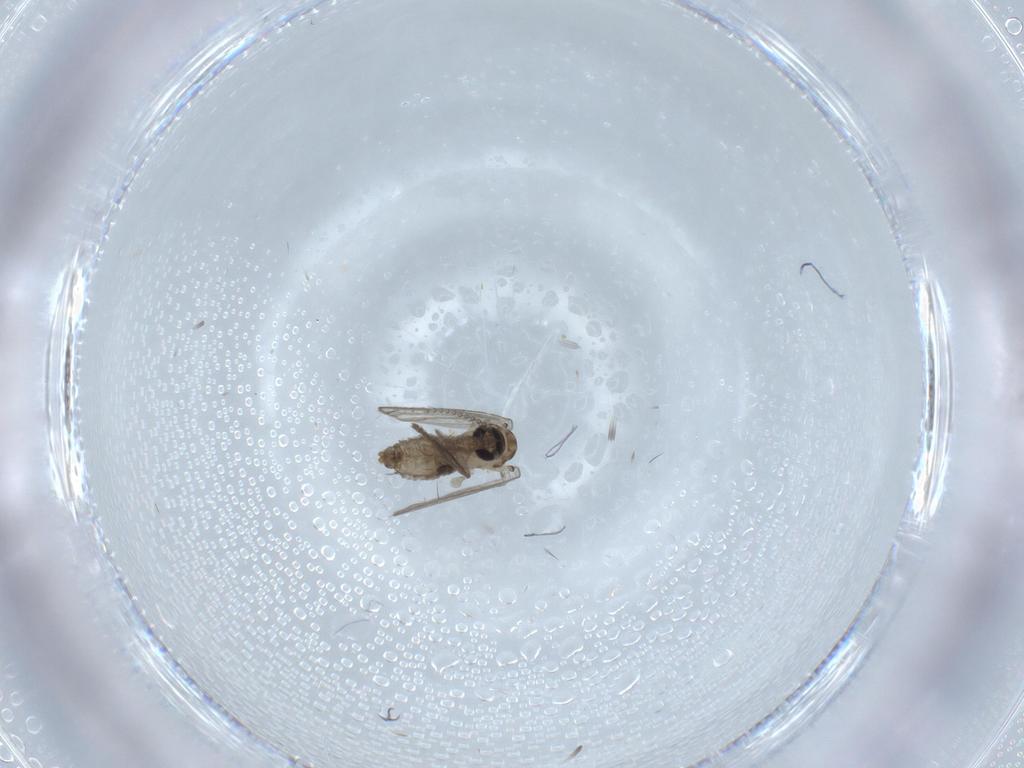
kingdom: Animalia
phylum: Arthropoda
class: Insecta
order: Diptera
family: Psychodidae
